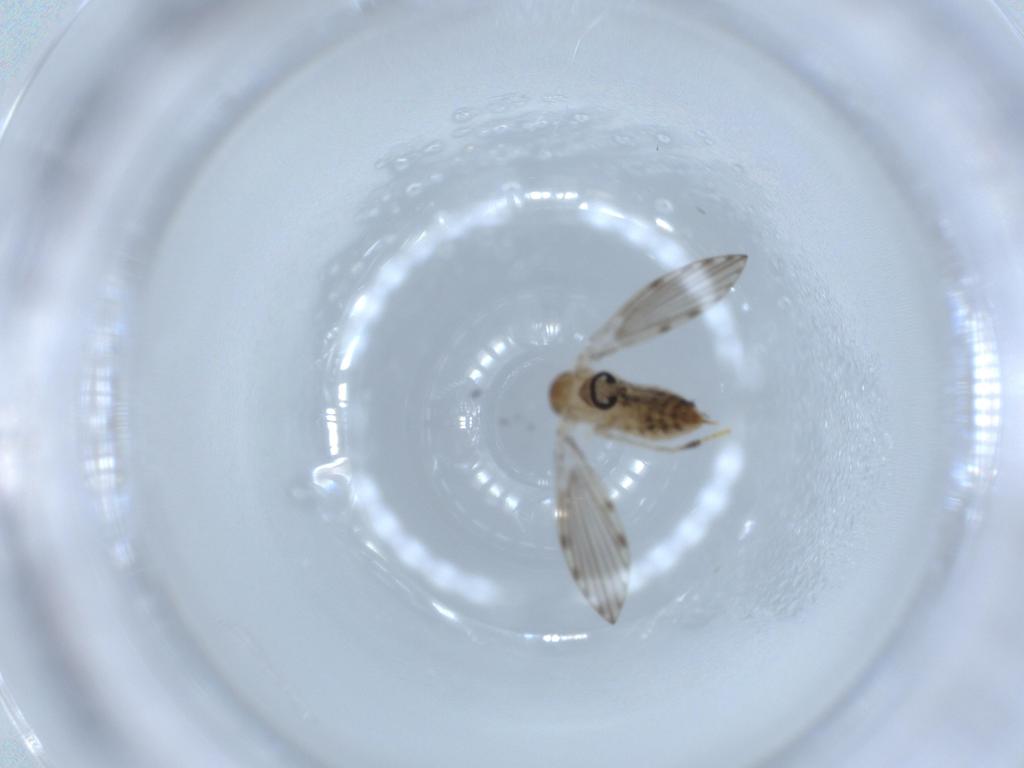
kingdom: Animalia
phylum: Arthropoda
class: Insecta
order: Diptera
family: Psychodidae
